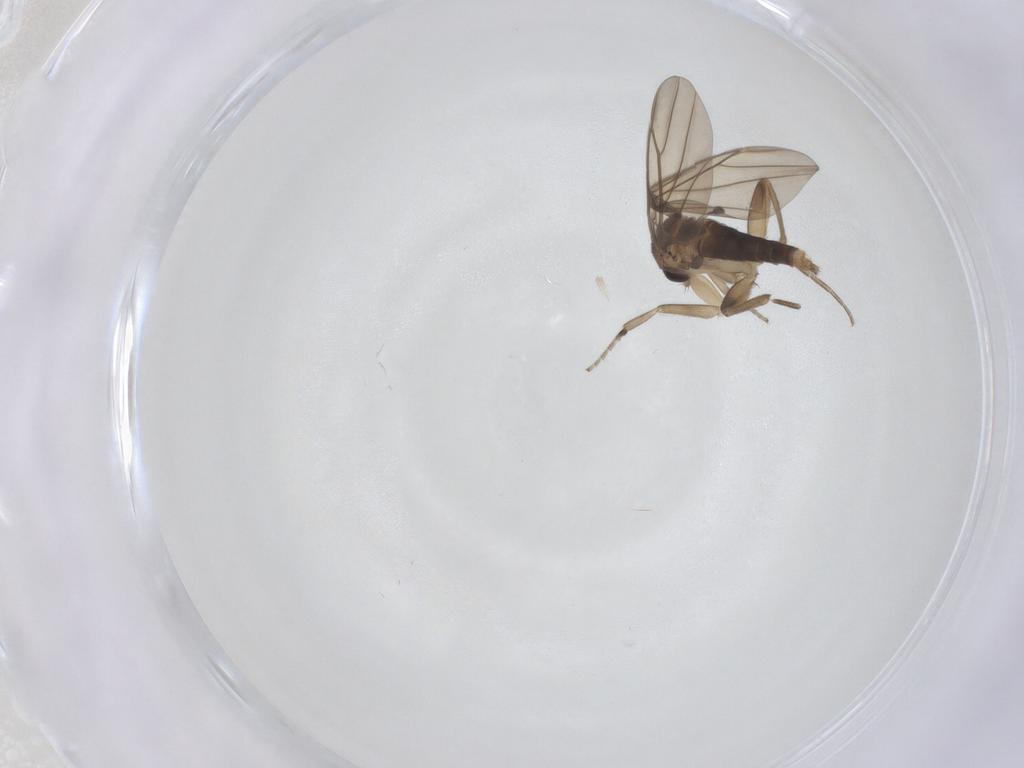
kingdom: Animalia
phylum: Arthropoda
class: Insecta
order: Diptera
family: Phoridae
